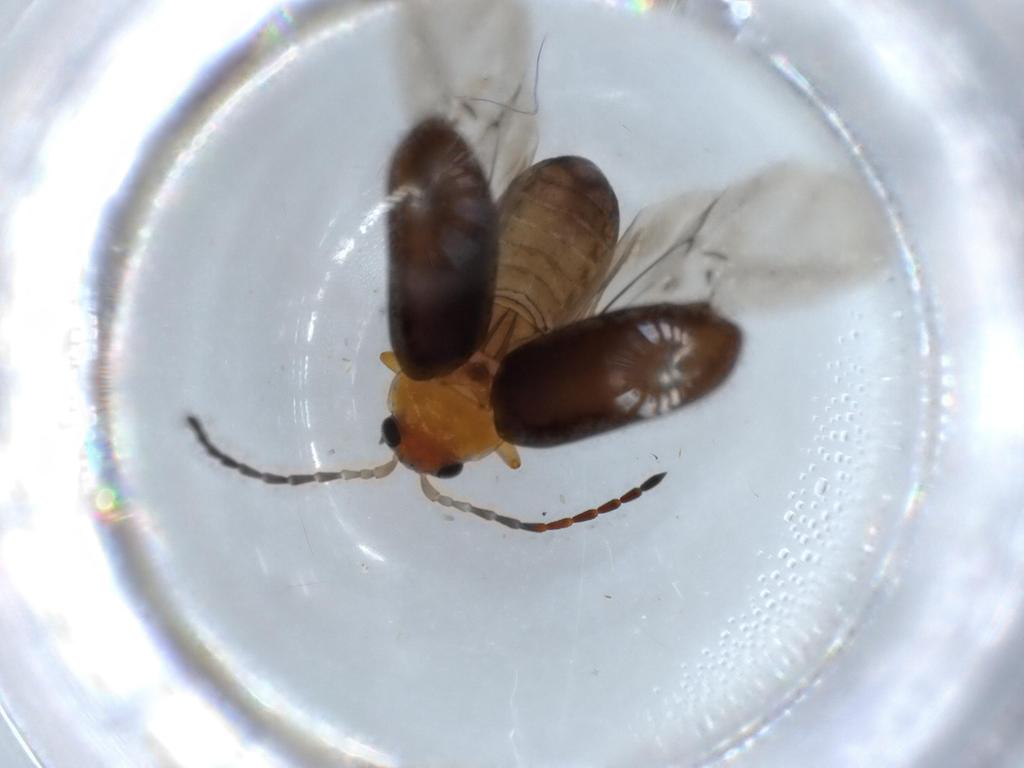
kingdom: Animalia
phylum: Arthropoda
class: Insecta
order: Coleoptera
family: Chrysomelidae
